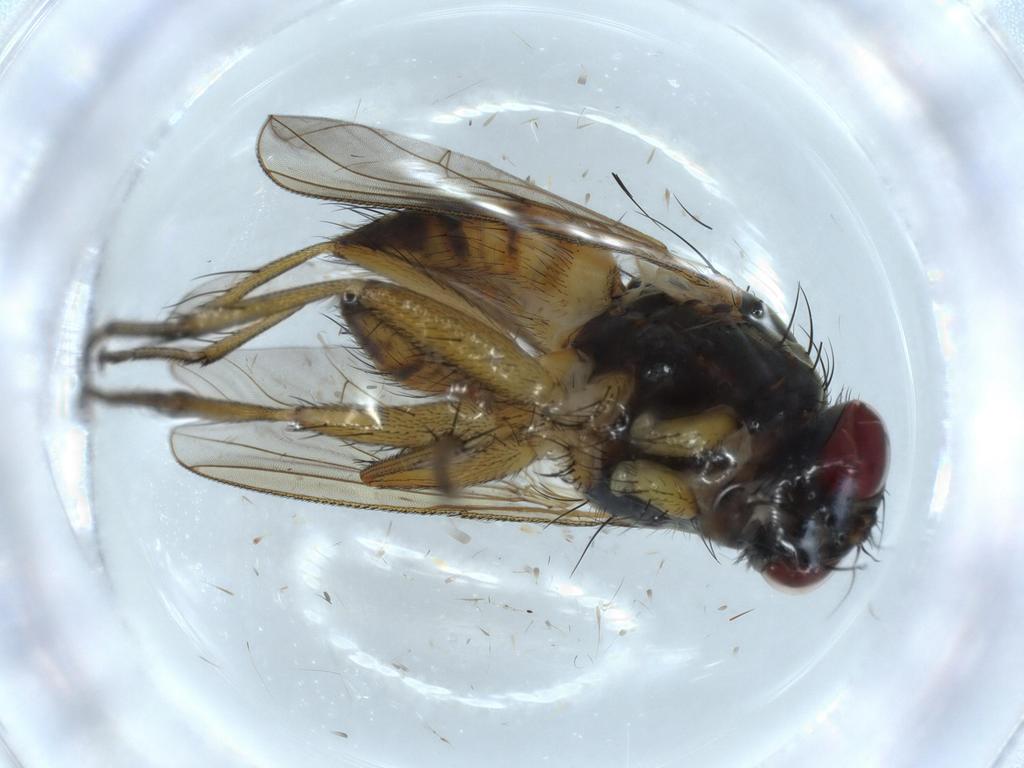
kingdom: Animalia
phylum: Arthropoda
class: Insecta
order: Diptera
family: Muscidae
